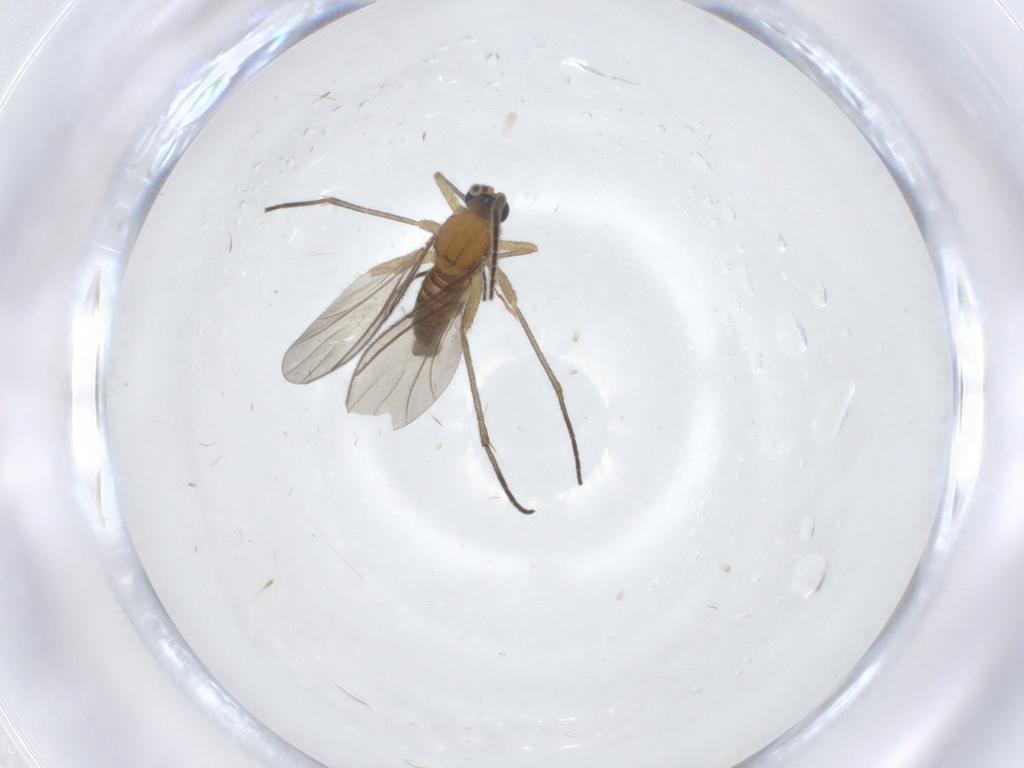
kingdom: Animalia
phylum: Arthropoda
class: Insecta
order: Diptera
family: Sciaridae
